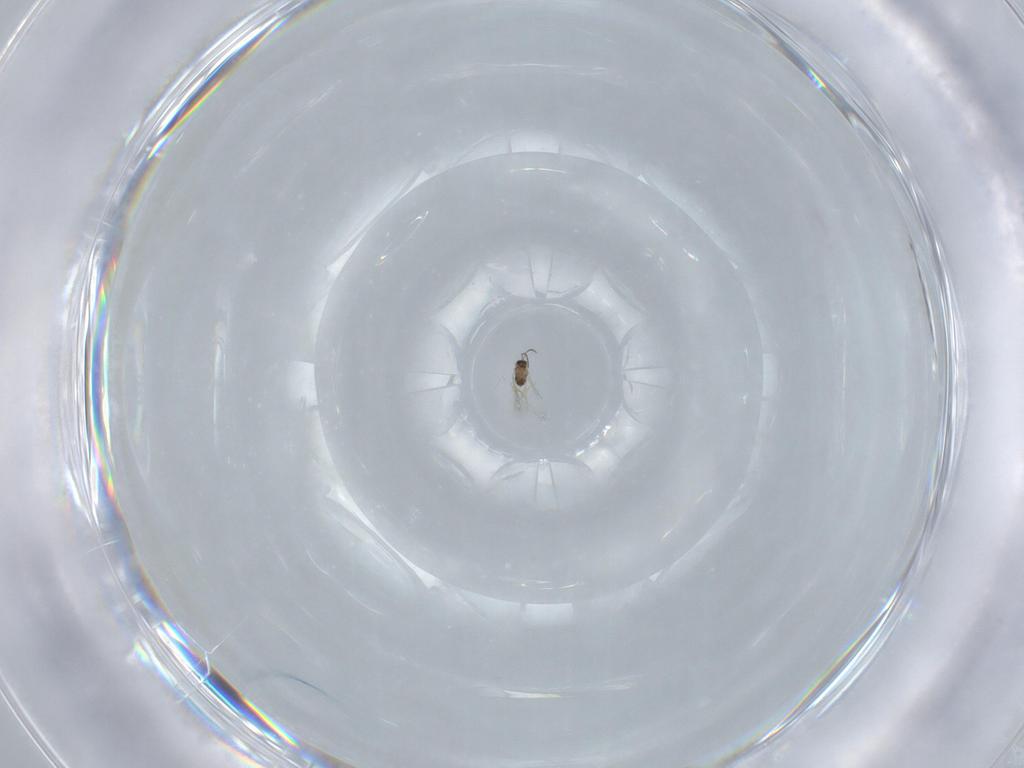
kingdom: Animalia
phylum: Arthropoda
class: Insecta
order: Hymenoptera
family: Formicidae
